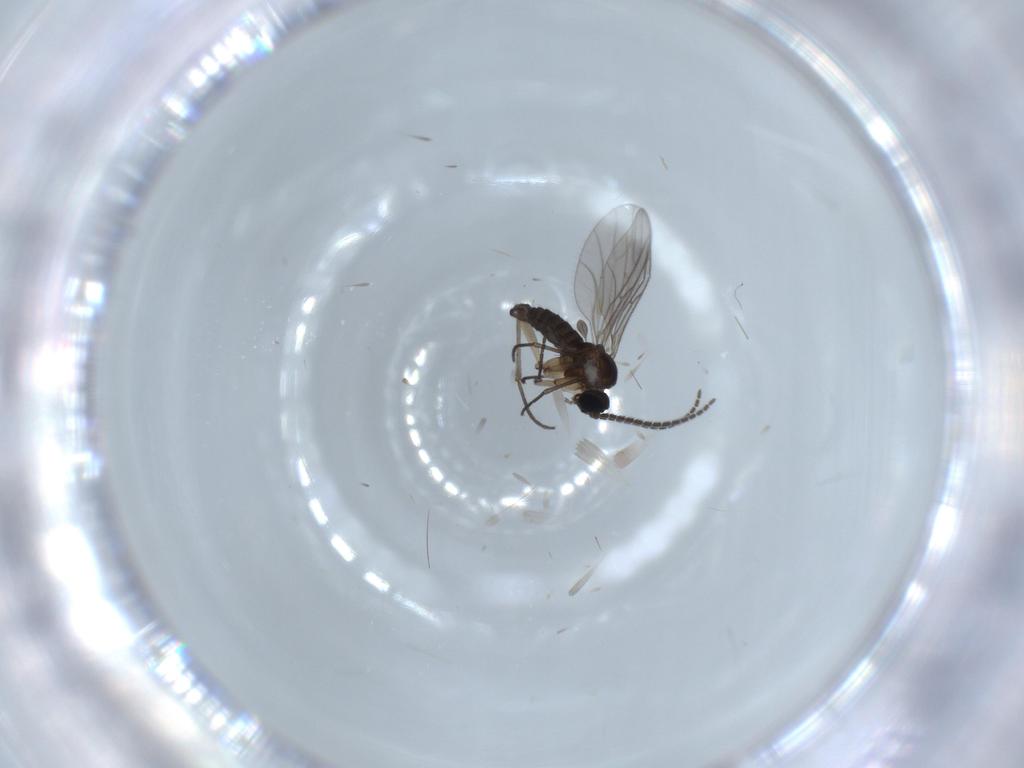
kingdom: Animalia
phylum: Arthropoda
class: Insecta
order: Diptera
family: Sciaridae
